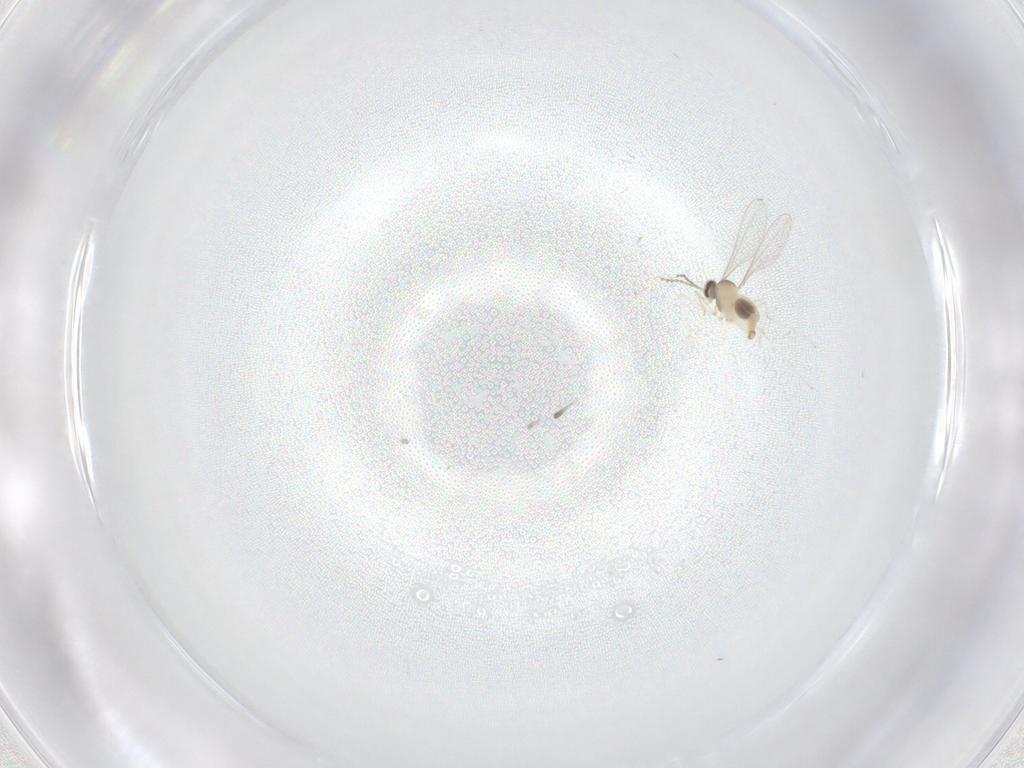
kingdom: Animalia
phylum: Arthropoda
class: Insecta
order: Diptera
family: Cecidomyiidae
